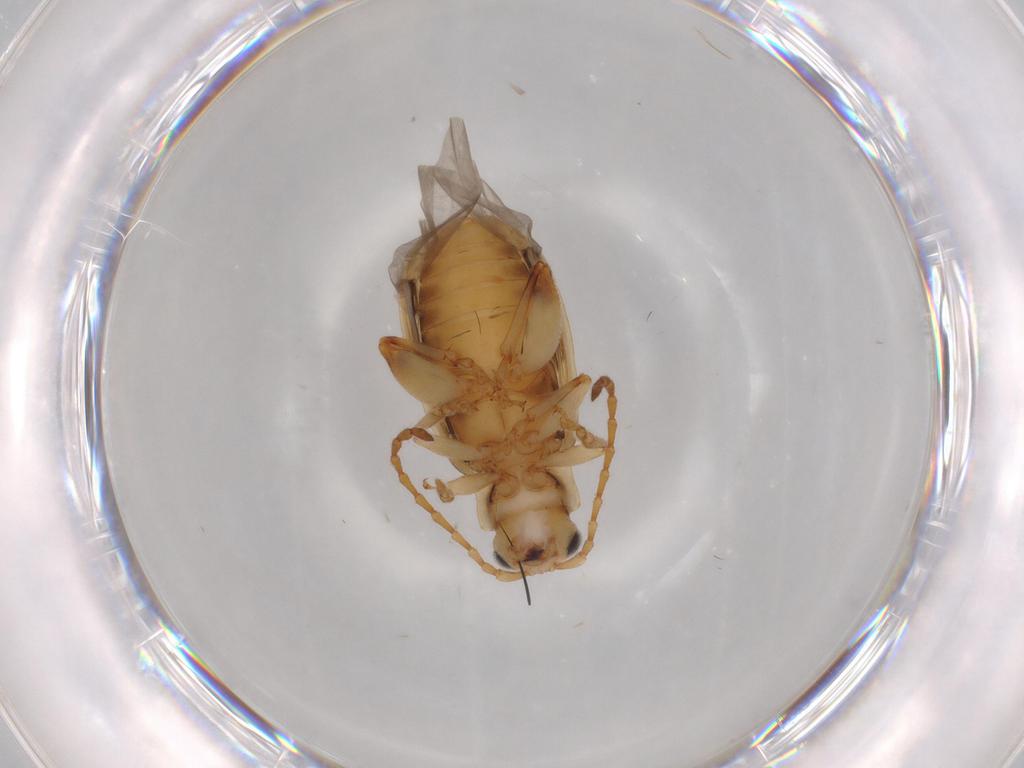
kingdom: Animalia
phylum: Arthropoda
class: Insecta
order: Coleoptera
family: Chrysomelidae
